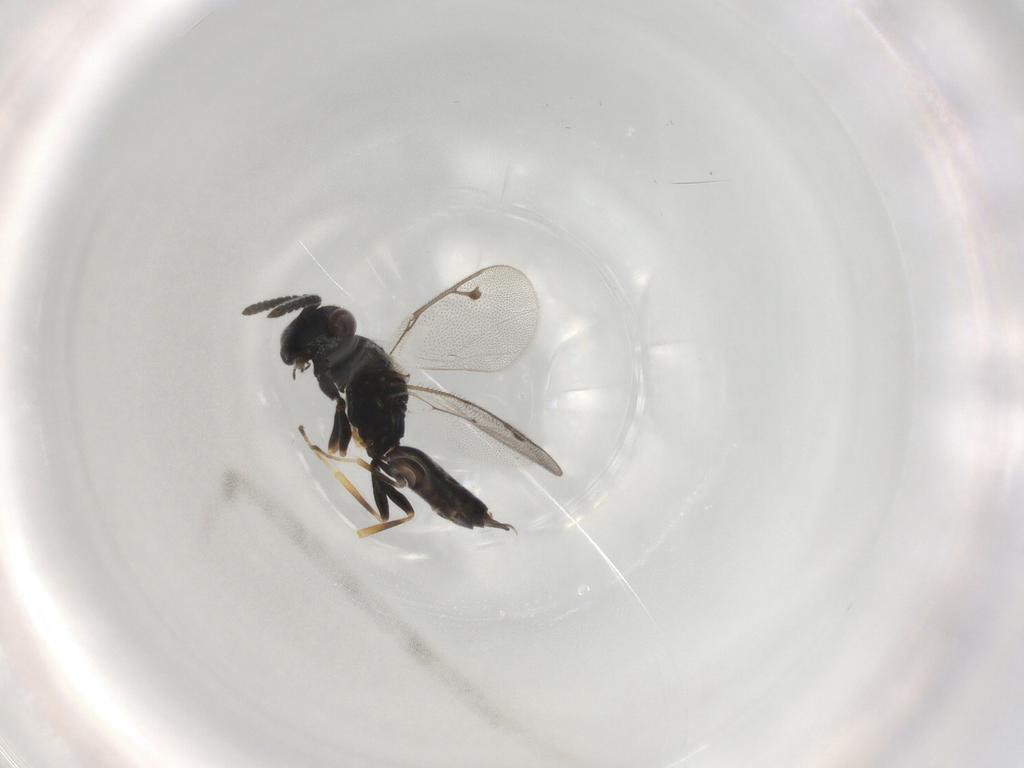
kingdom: Animalia
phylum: Arthropoda
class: Insecta
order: Hymenoptera
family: Pteromalidae
